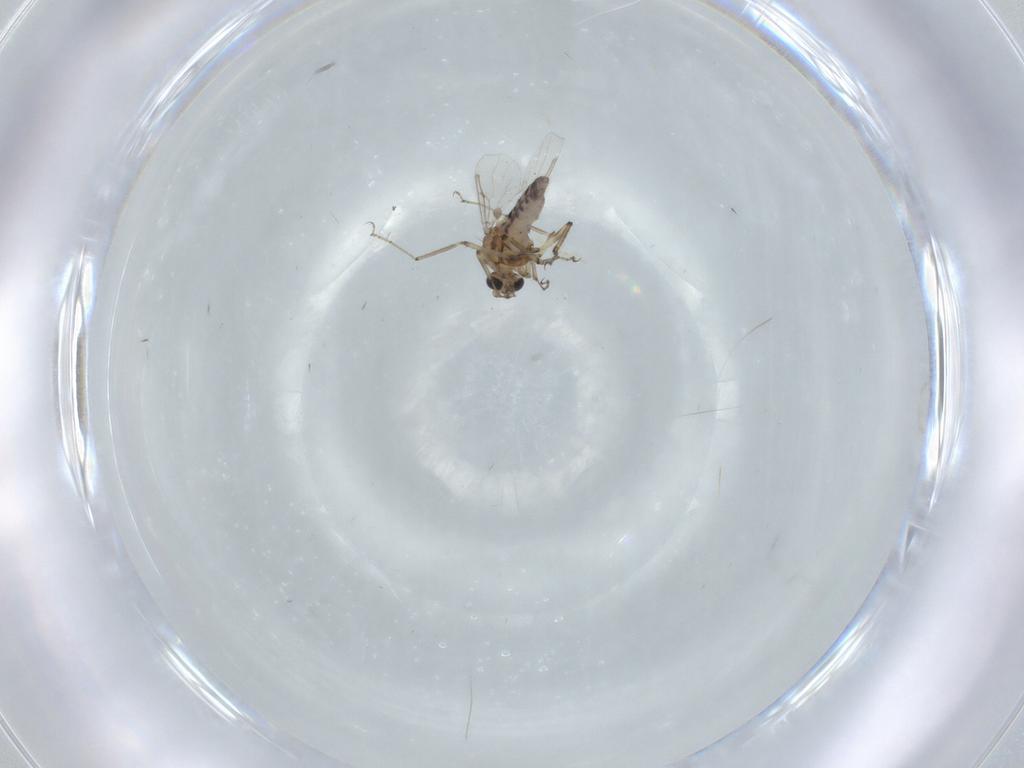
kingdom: Animalia
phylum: Arthropoda
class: Insecta
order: Diptera
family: Ceratopogonidae
